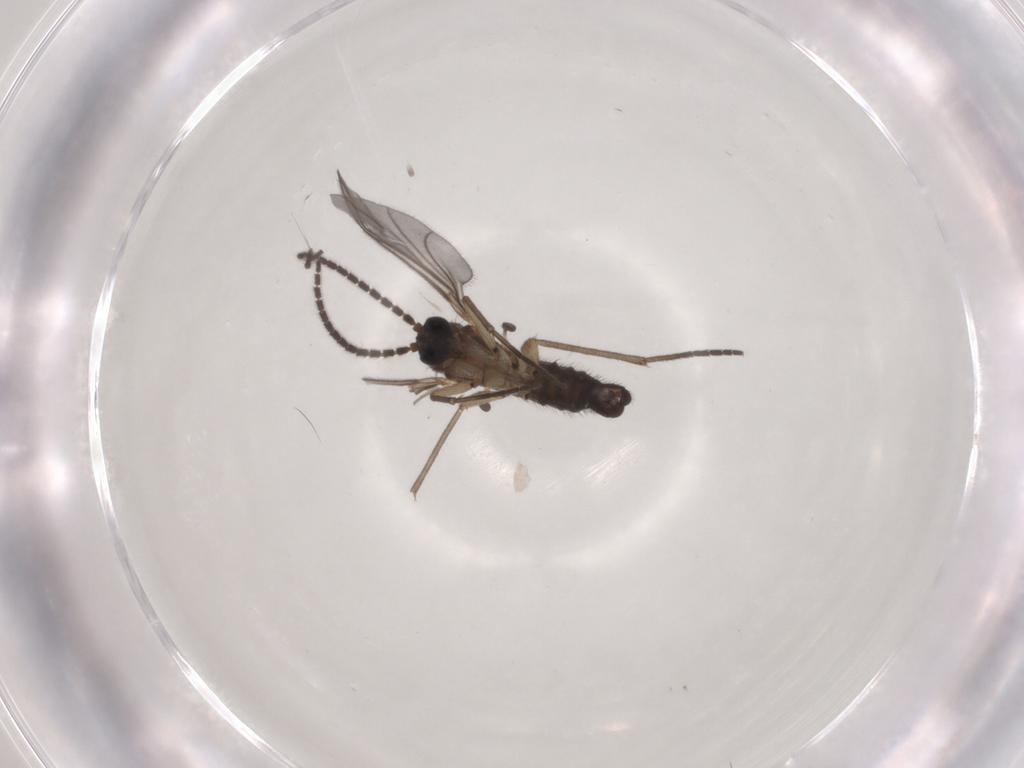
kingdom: Animalia
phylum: Arthropoda
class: Insecta
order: Diptera
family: Sciaridae
